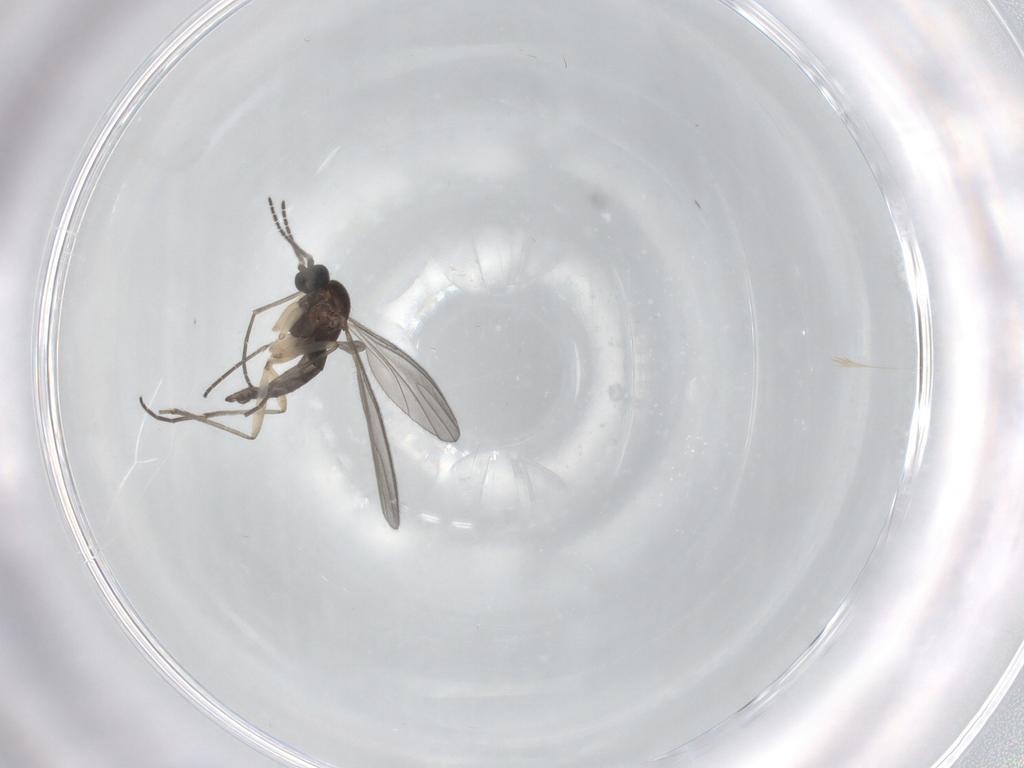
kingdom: Animalia
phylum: Arthropoda
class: Insecta
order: Diptera
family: Sciaridae
